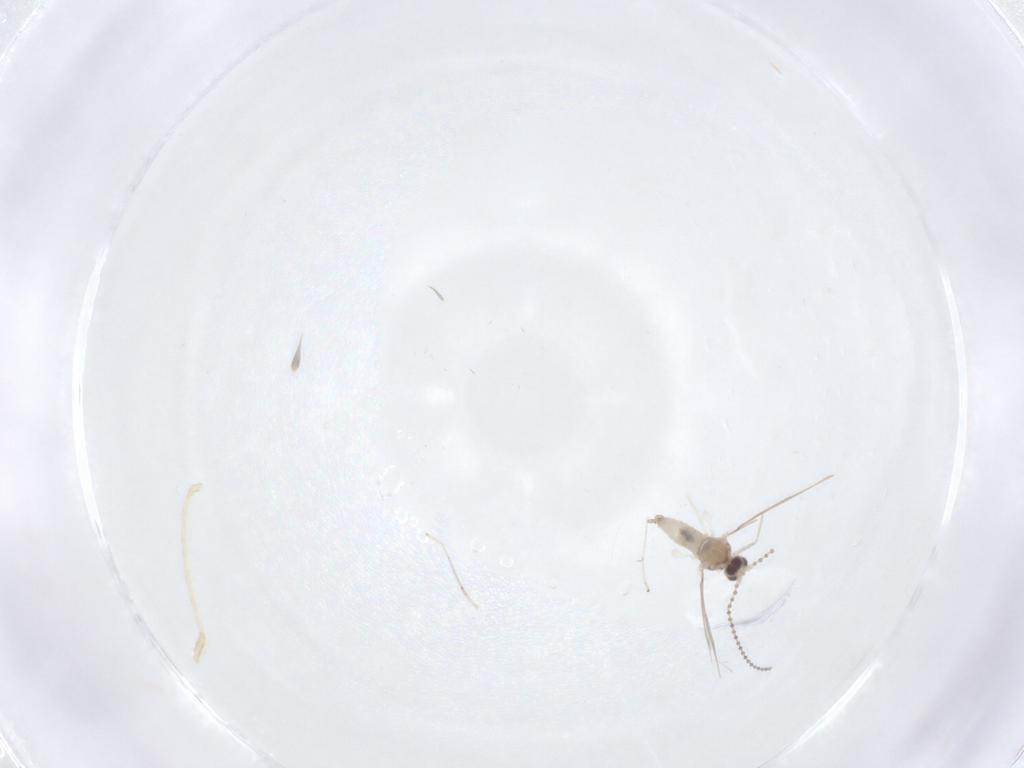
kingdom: Animalia
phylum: Arthropoda
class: Insecta
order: Diptera
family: Cecidomyiidae
